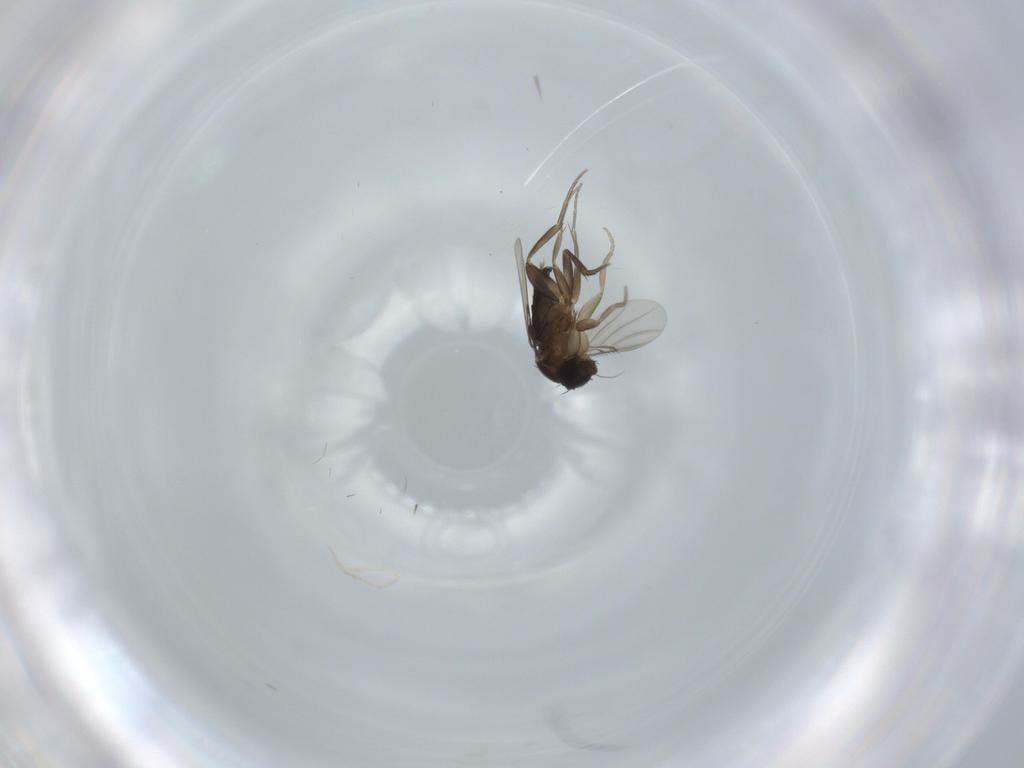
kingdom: Animalia
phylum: Arthropoda
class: Insecta
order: Diptera
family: Phoridae
